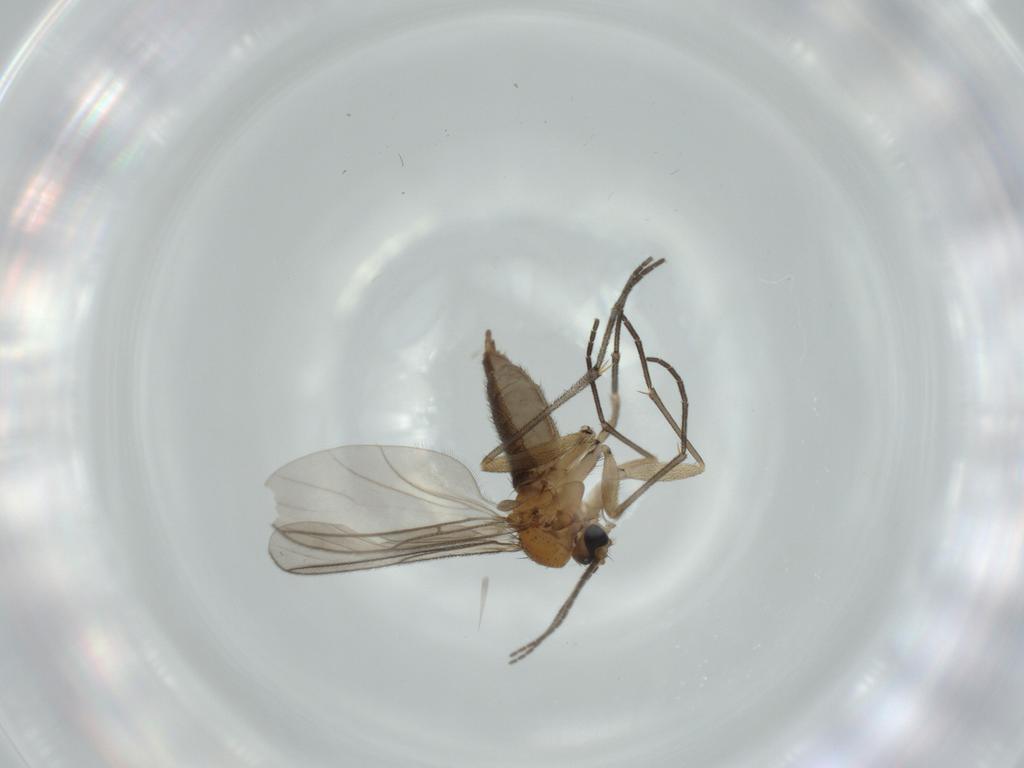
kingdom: Animalia
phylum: Arthropoda
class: Insecta
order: Diptera
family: Sciaridae
